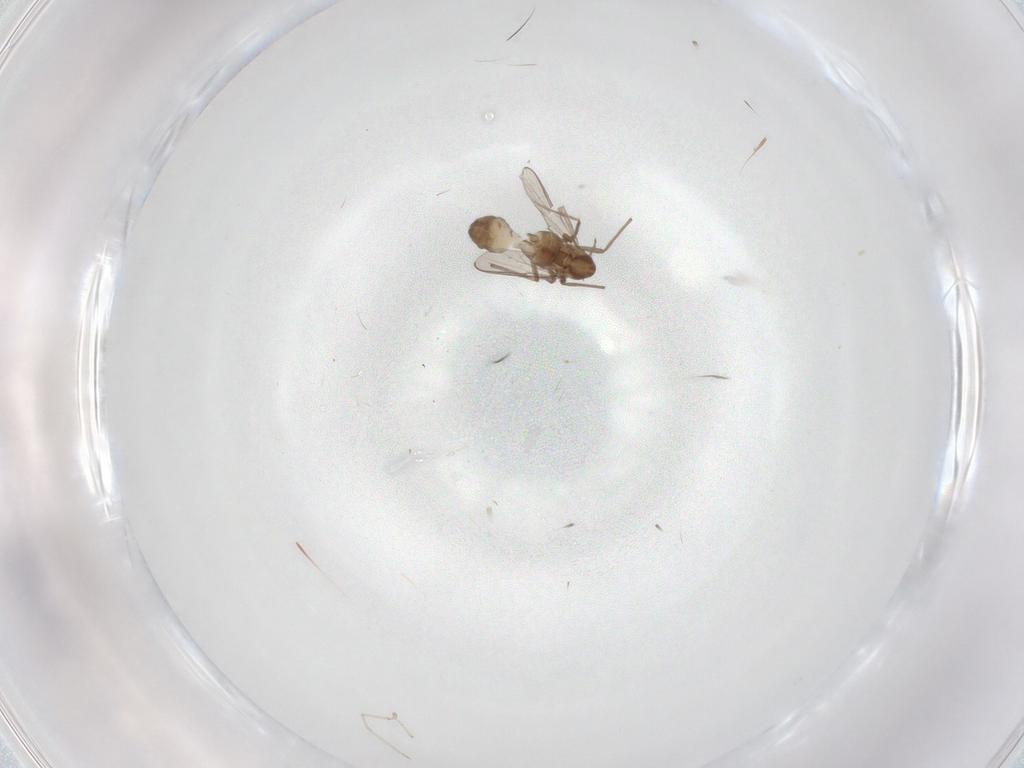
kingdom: Animalia
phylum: Arthropoda
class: Insecta
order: Diptera
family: Chironomidae
